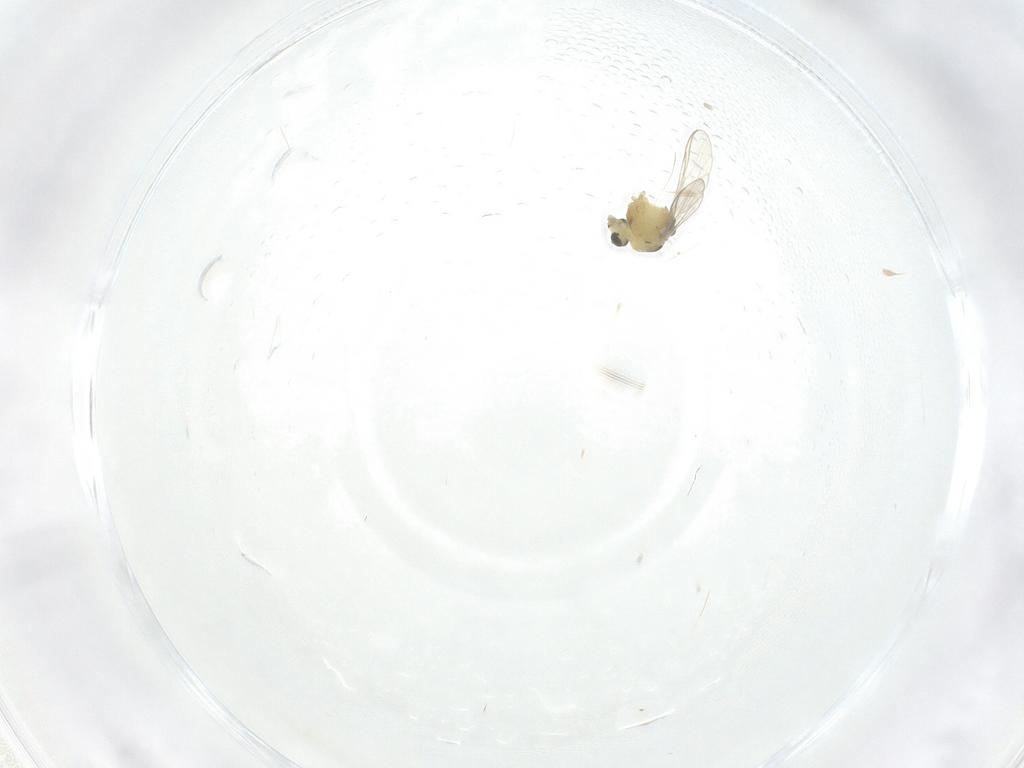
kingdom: Animalia
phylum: Arthropoda
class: Insecta
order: Diptera
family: Chironomidae
